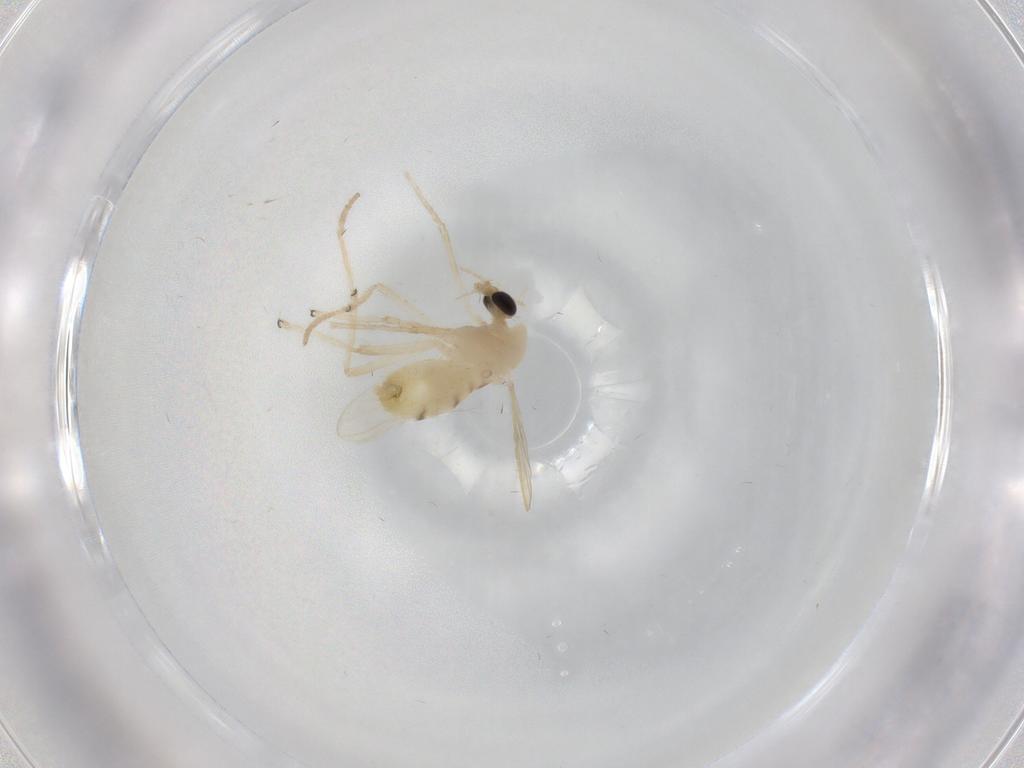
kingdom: Animalia
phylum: Arthropoda
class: Insecta
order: Diptera
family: Chironomidae
